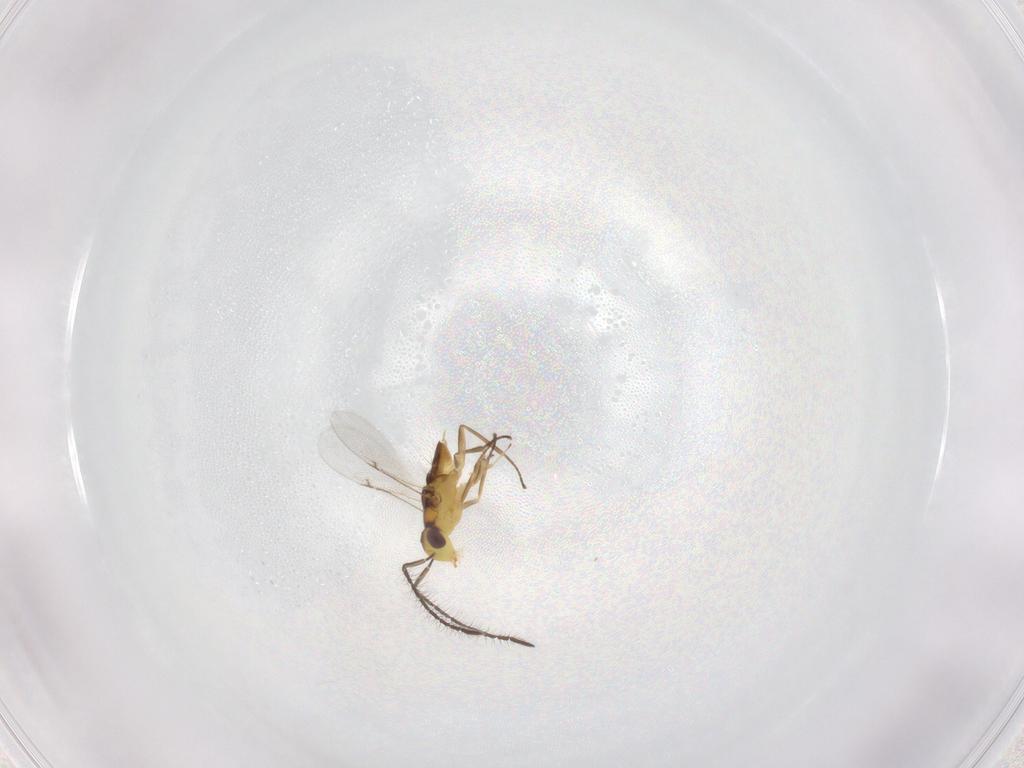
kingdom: Animalia
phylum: Arthropoda
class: Insecta
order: Hymenoptera
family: Scelionidae
